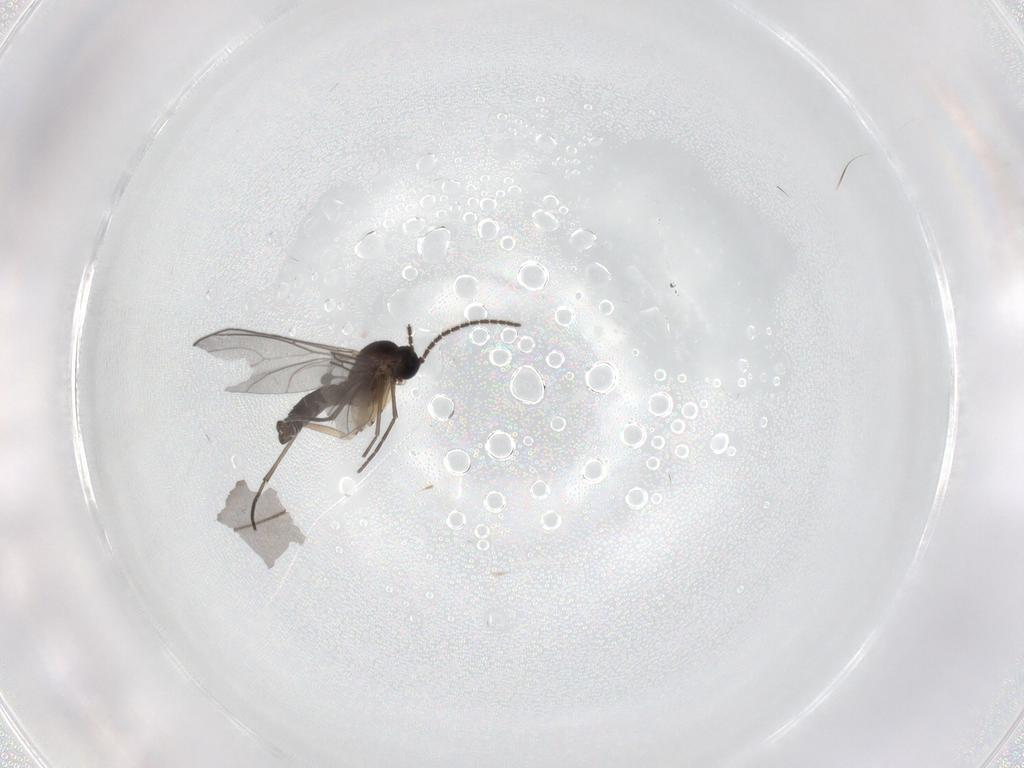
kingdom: Animalia
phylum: Arthropoda
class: Insecta
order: Diptera
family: Sciaridae
